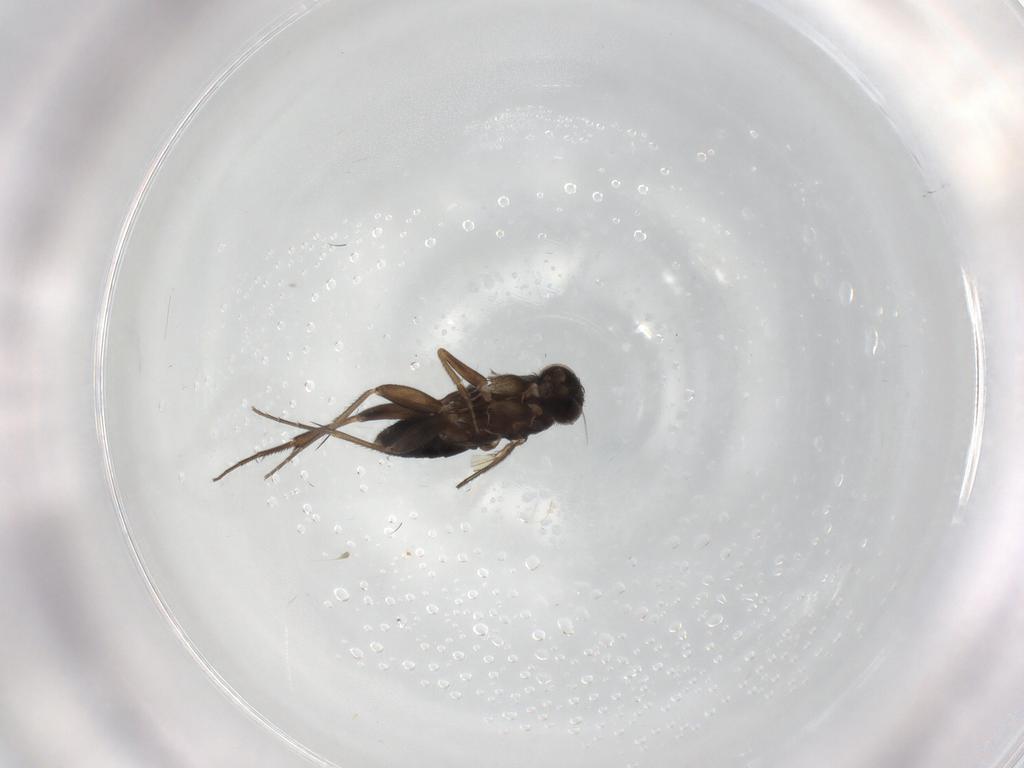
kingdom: Animalia
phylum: Arthropoda
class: Insecta
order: Diptera
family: Phoridae
